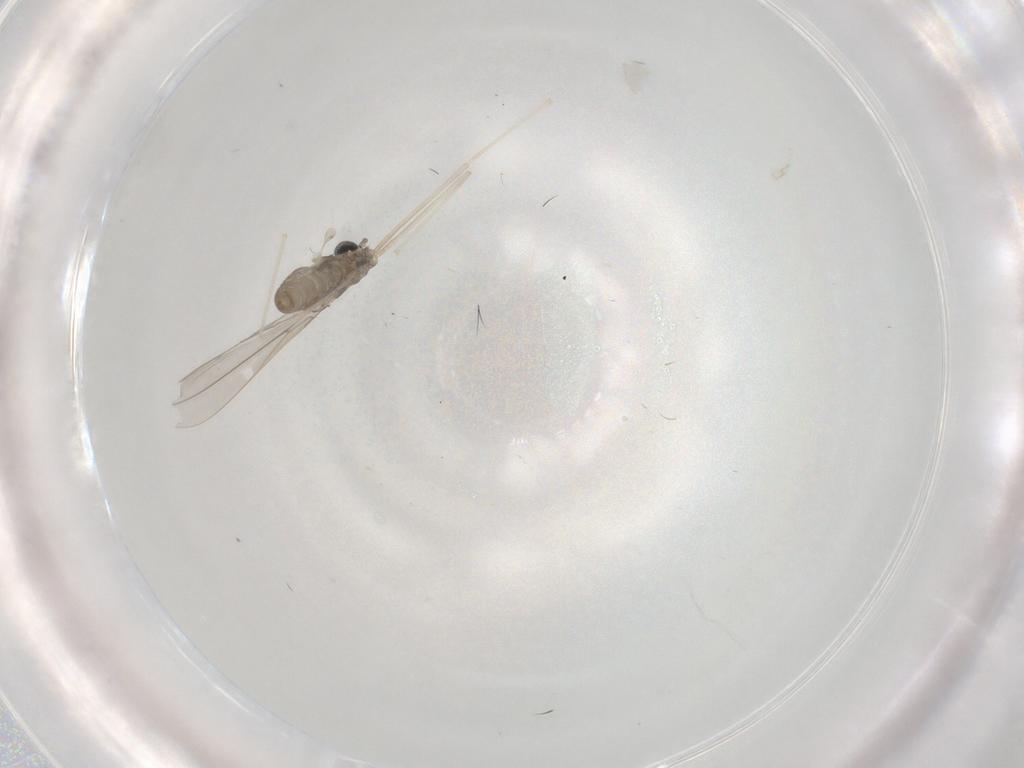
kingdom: Animalia
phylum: Arthropoda
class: Insecta
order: Diptera
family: Cecidomyiidae
